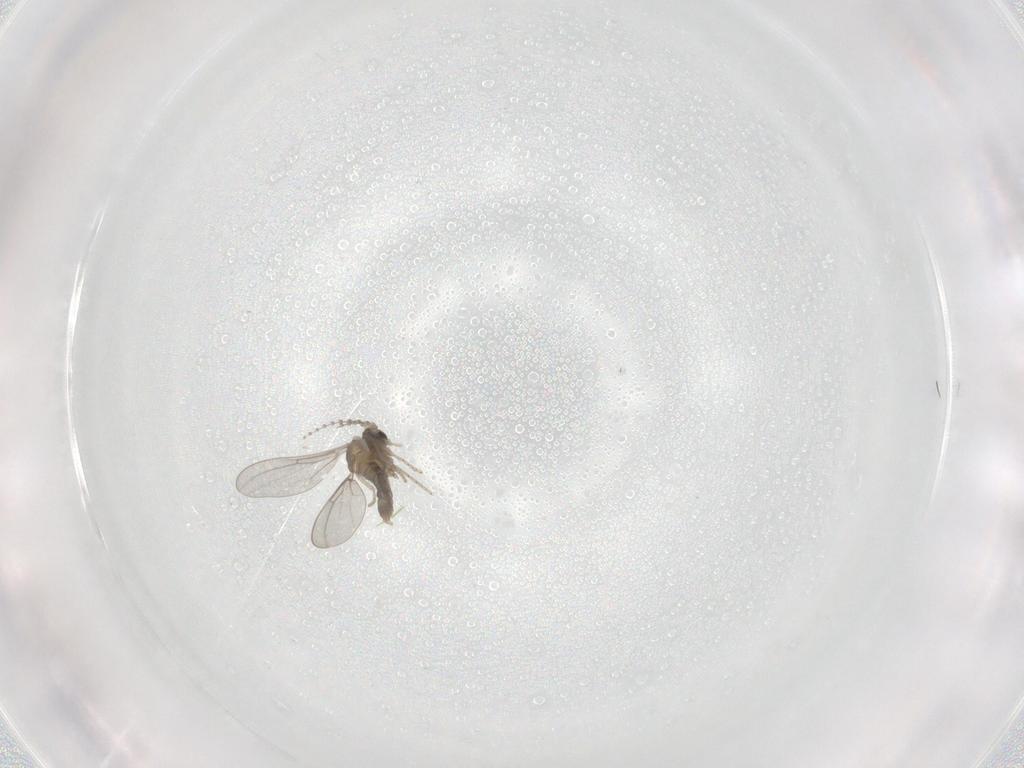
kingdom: Animalia
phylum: Arthropoda
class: Insecta
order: Diptera
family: Cecidomyiidae
